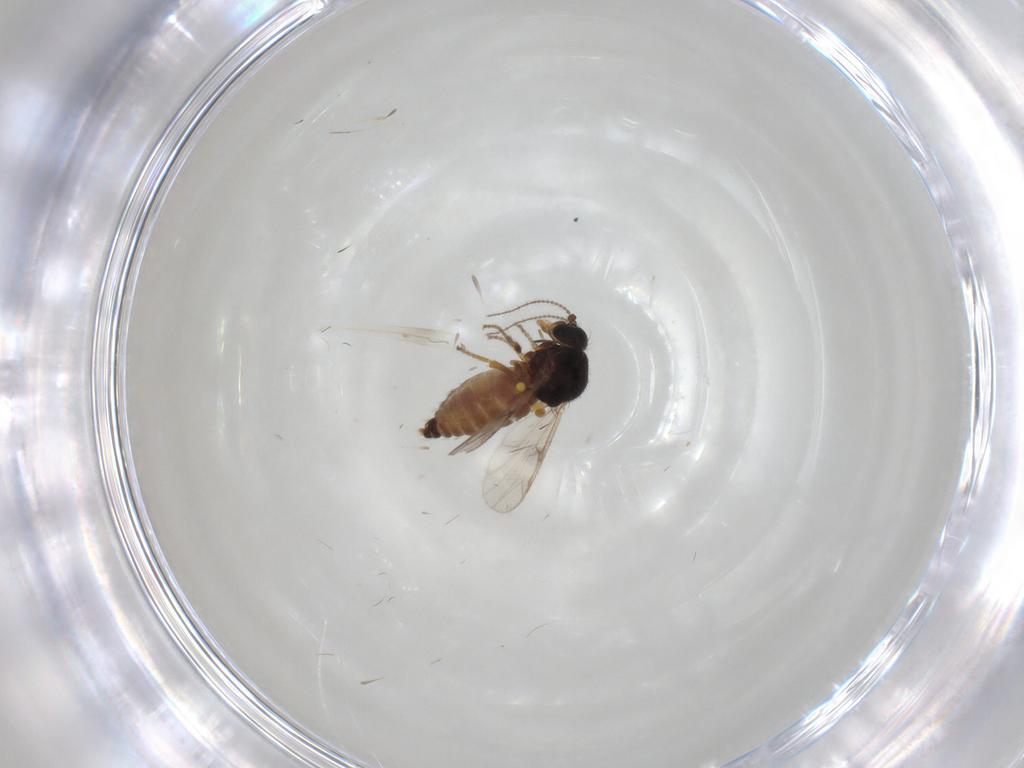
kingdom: Animalia
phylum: Arthropoda
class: Insecta
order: Diptera
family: Ceratopogonidae
